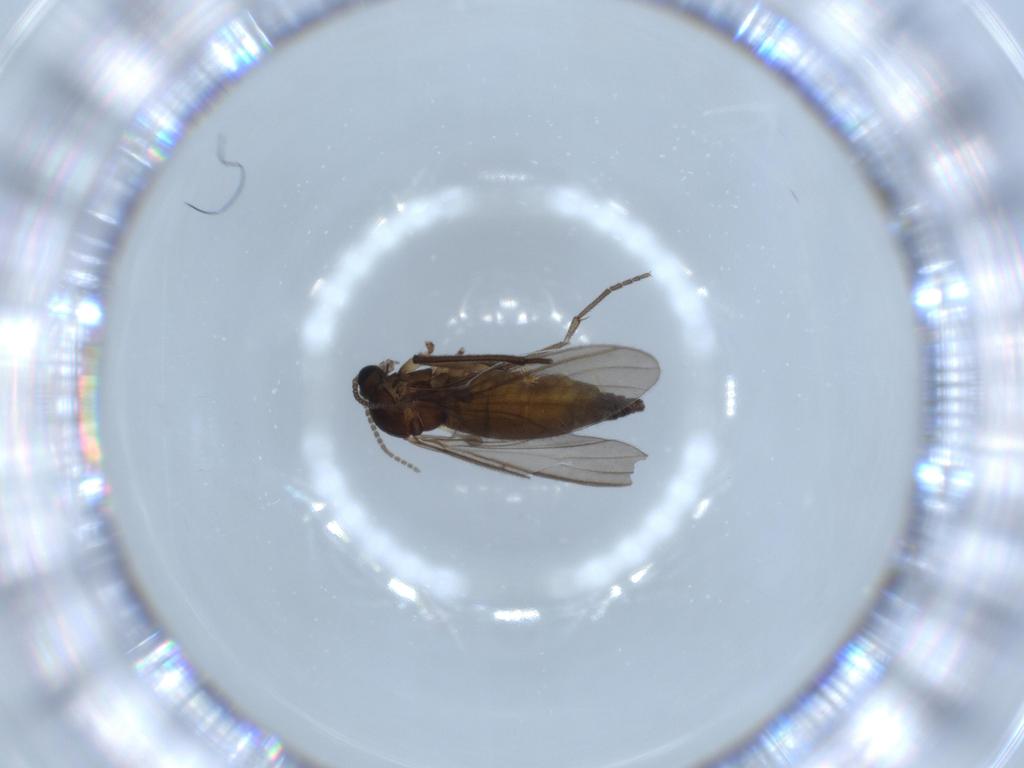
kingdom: Animalia
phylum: Arthropoda
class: Insecta
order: Diptera
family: Sciaridae
